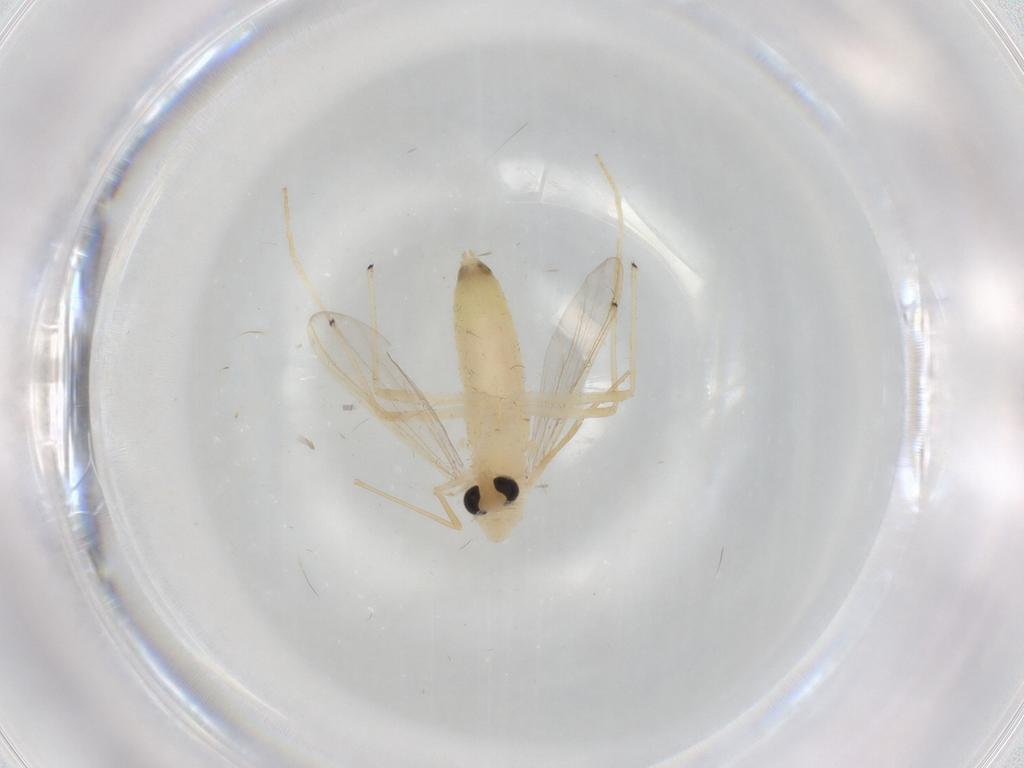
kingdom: Animalia
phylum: Arthropoda
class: Insecta
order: Diptera
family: Chironomidae
